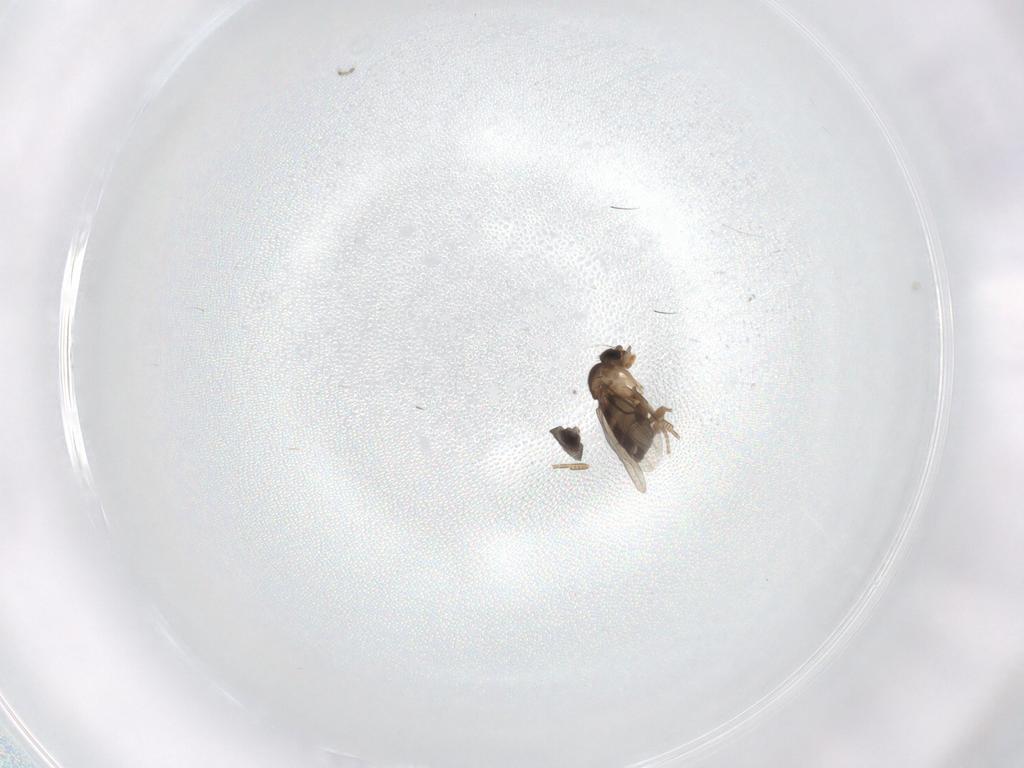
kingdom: Animalia
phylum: Arthropoda
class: Insecta
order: Diptera
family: Phoridae
